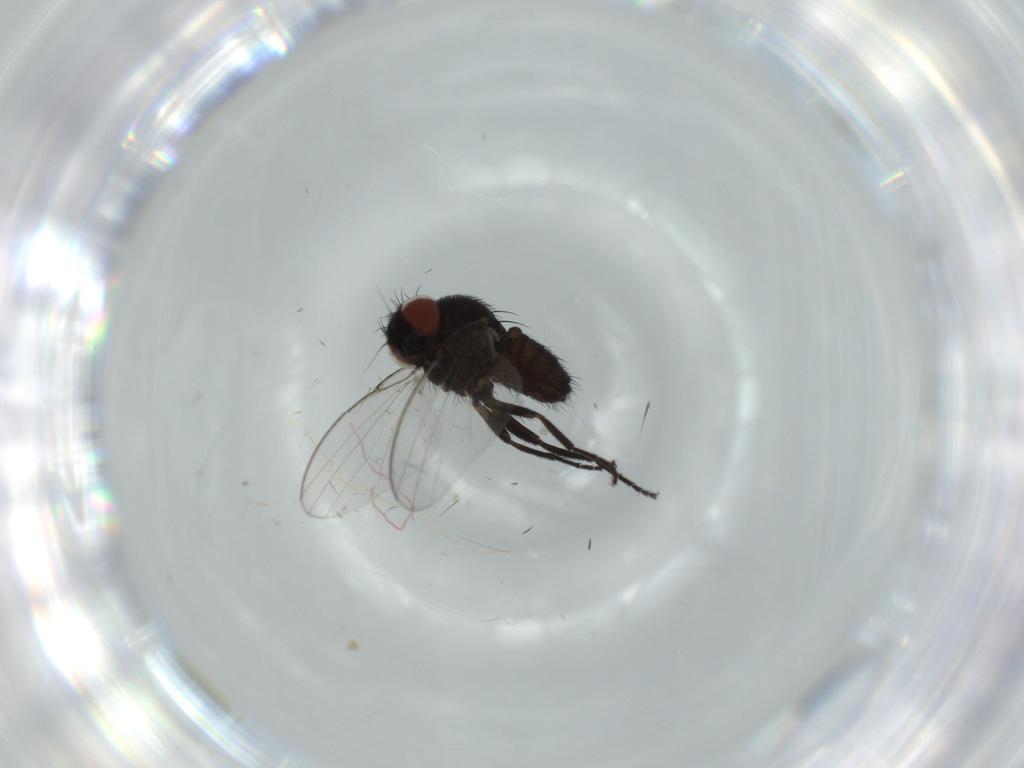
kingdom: Animalia
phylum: Arthropoda
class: Insecta
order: Diptera
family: Milichiidae
